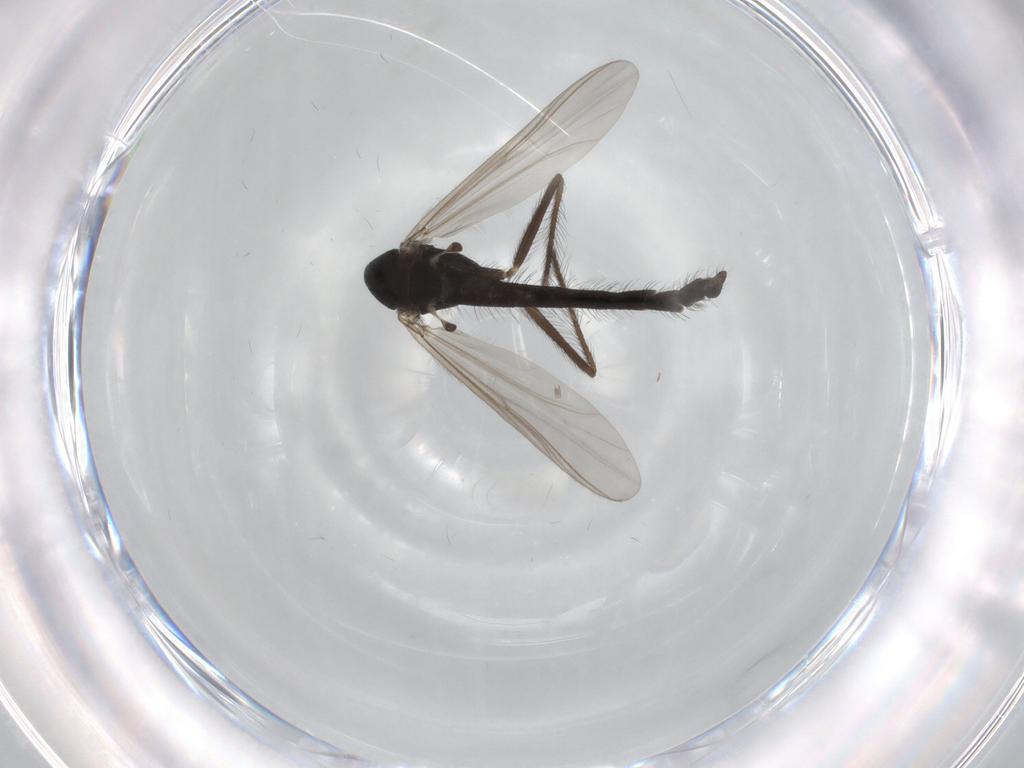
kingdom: Animalia
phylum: Arthropoda
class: Insecta
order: Diptera
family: Chironomidae
